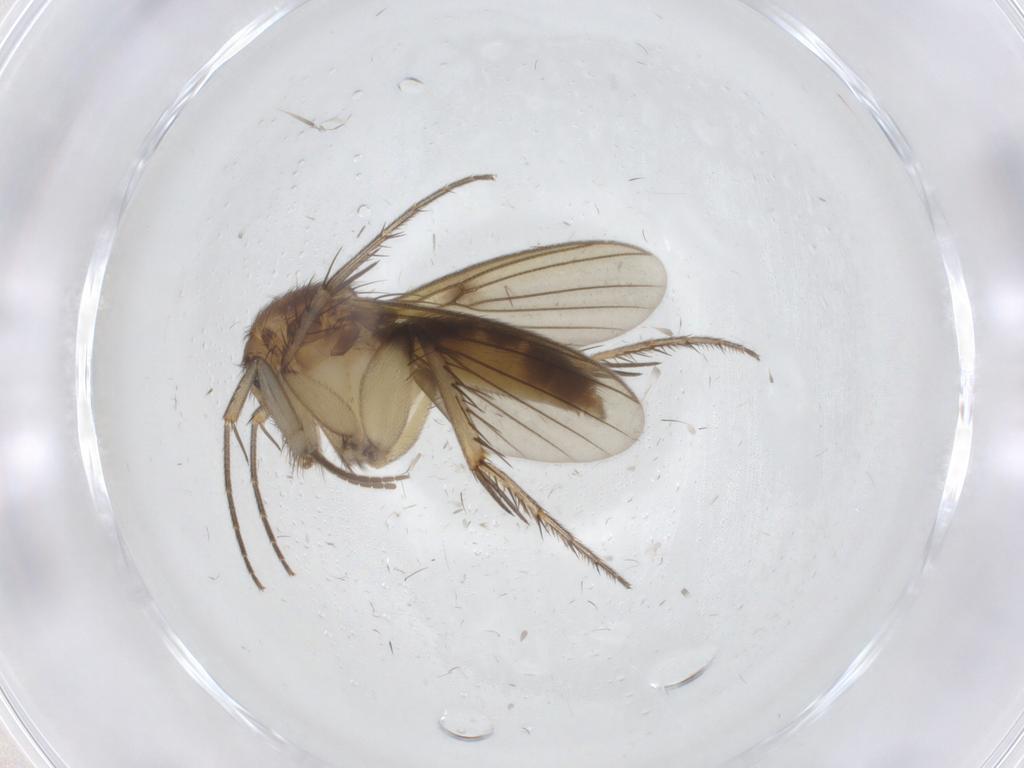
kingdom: Animalia
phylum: Arthropoda
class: Insecta
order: Diptera
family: Mycetophilidae
